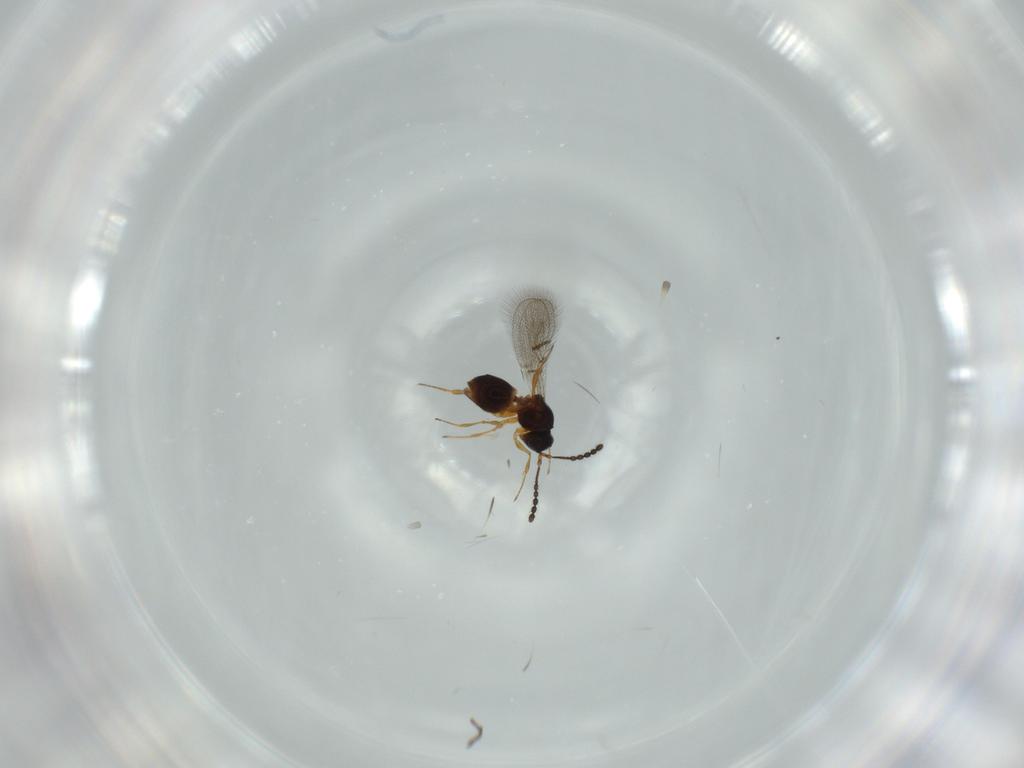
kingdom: Animalia
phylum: Arthropoda
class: Insecta
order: Hymenoptera
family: Figitidae
